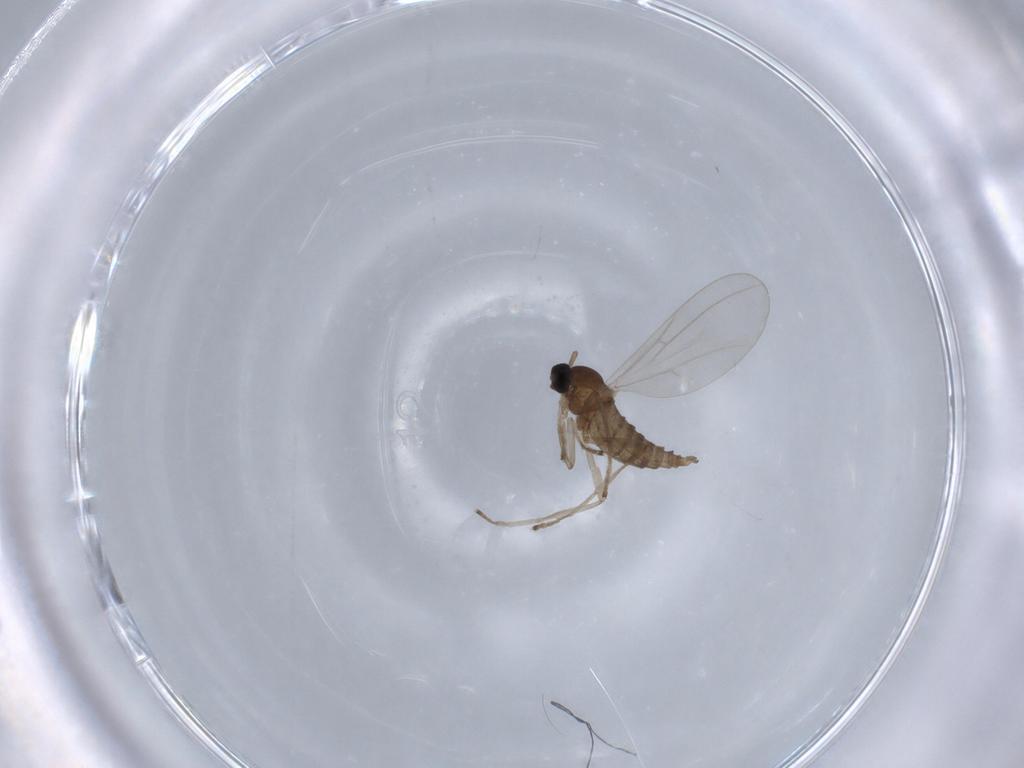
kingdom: Animalia
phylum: Arthropoda
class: Insecta
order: Diptera
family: Cecidomyiidae
